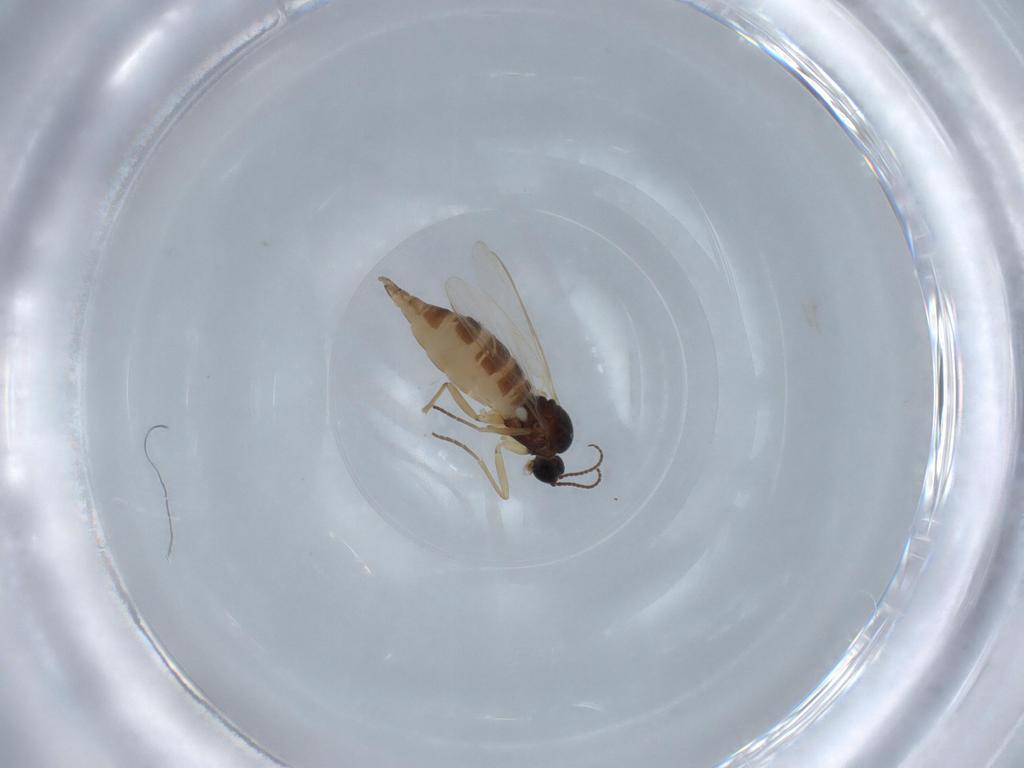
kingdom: Animalia
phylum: Arthropoda
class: Insecta
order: Diptera
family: Sciaridae
